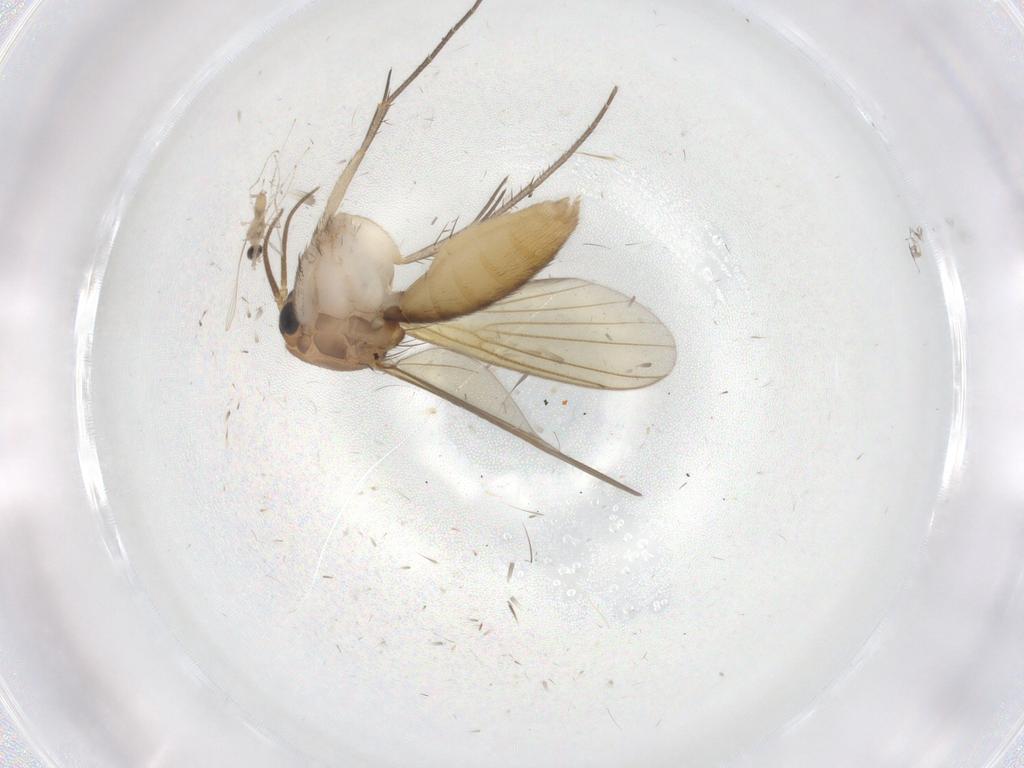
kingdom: Animalia
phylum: Arthropoda
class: Insecta
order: Diptera
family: Mycetophilidae
